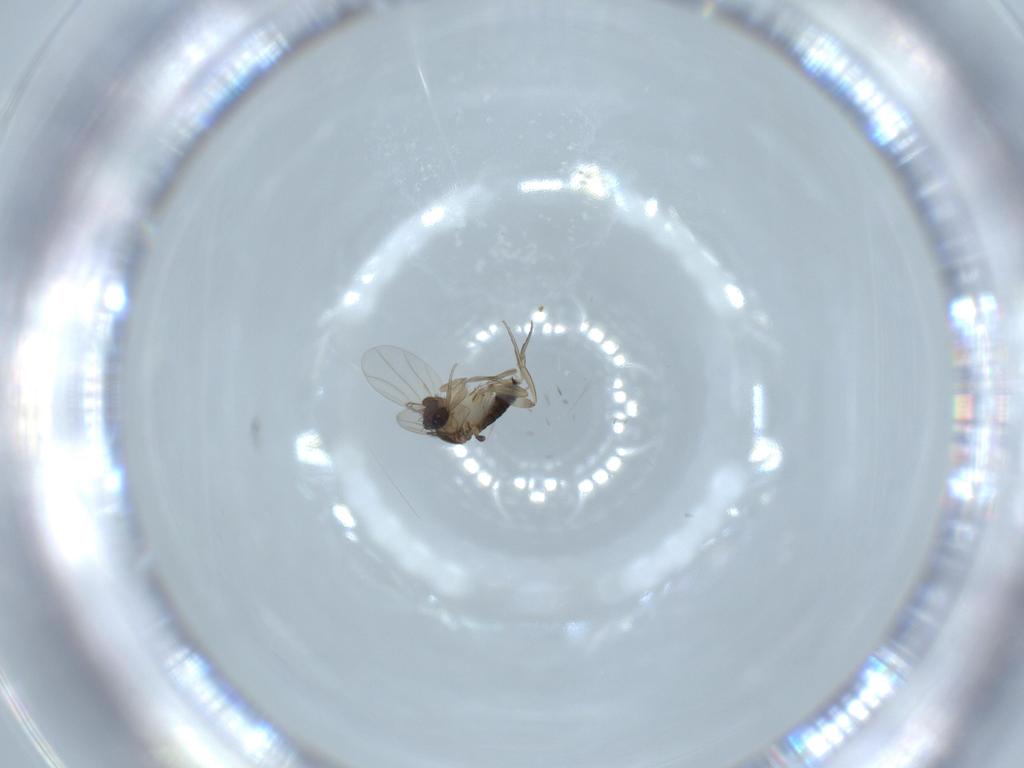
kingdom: Animalia
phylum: Arthropoda
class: Insecta
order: Diptera
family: Phoridae
